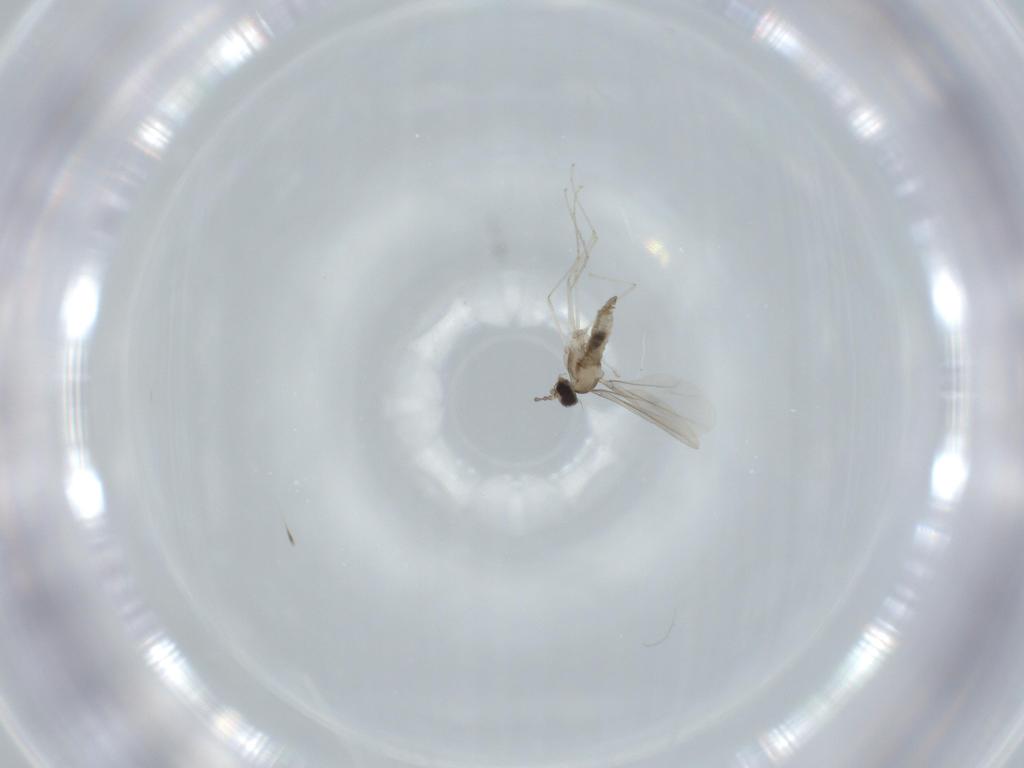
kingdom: Animalia
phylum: Arthropoda
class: Insecta
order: Diptera
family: Cecidomyiidae
